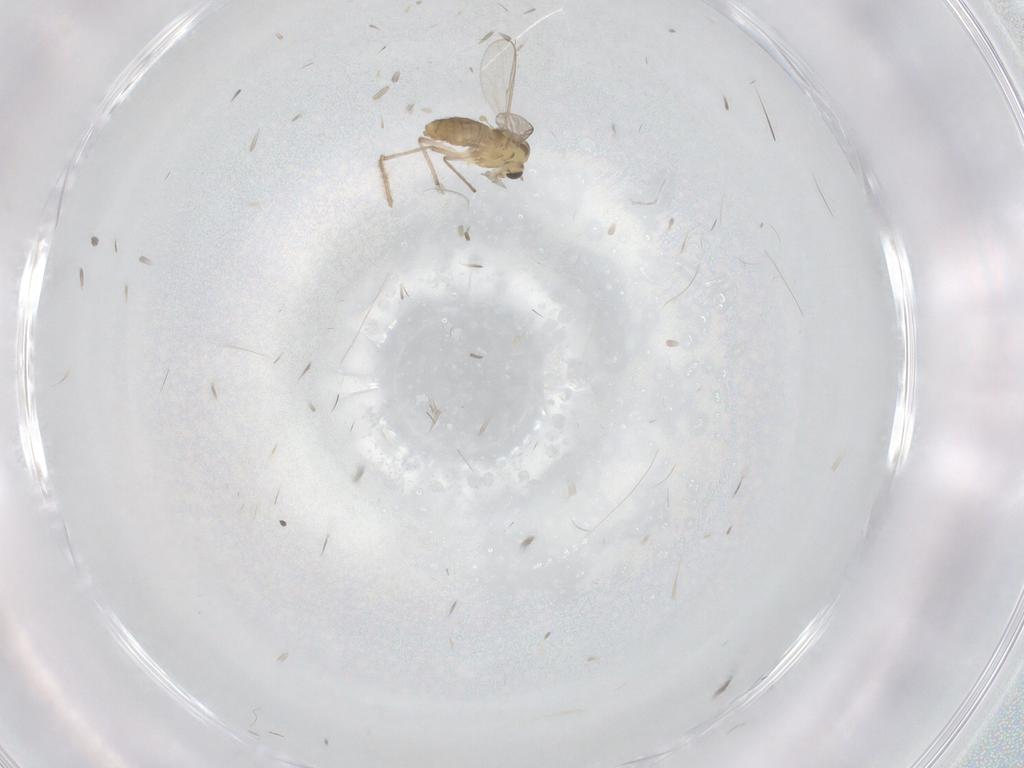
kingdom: Animalia
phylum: Arthropoda
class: Insecta
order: Diptera
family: Chironomidae
